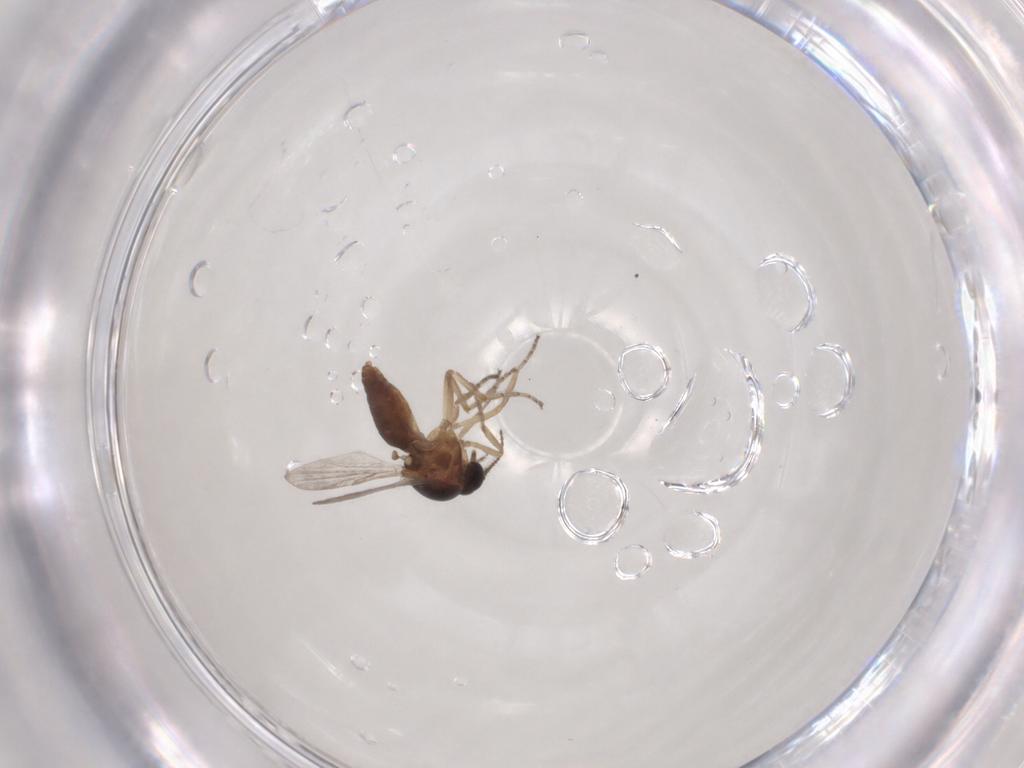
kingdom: Animalia
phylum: Arthropoda
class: Insecta
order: Diptera
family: Ceratopogonidae
